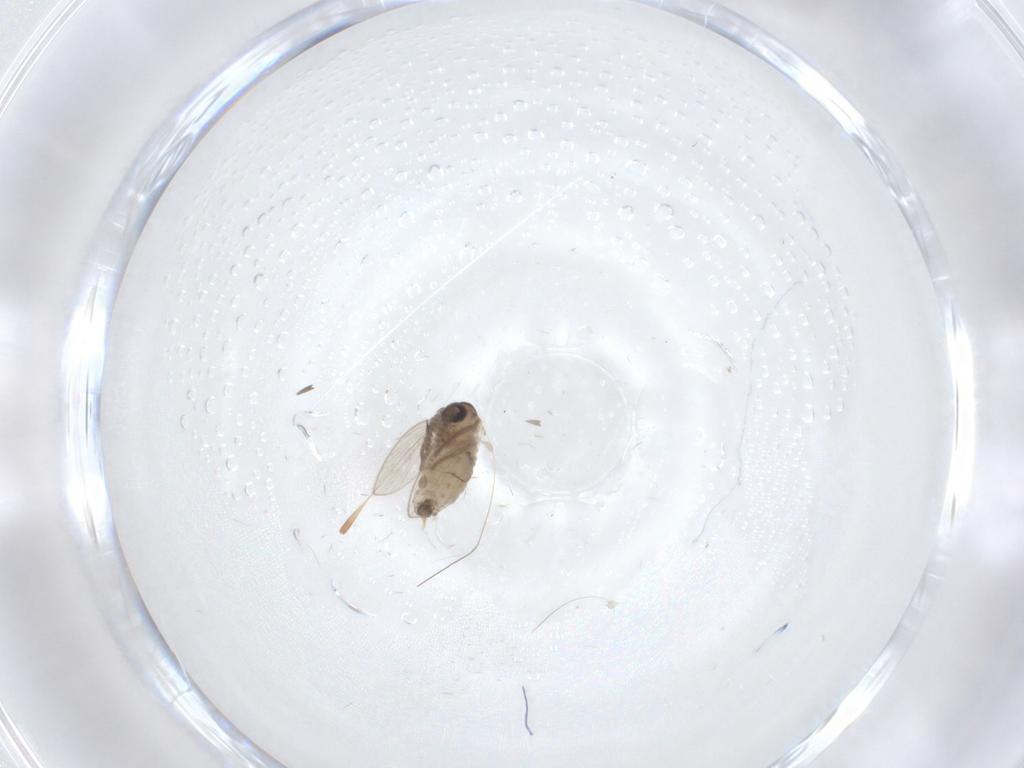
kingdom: Animalia
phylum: Arthropoda
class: Insecta
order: Diptera
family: Psychodidae
